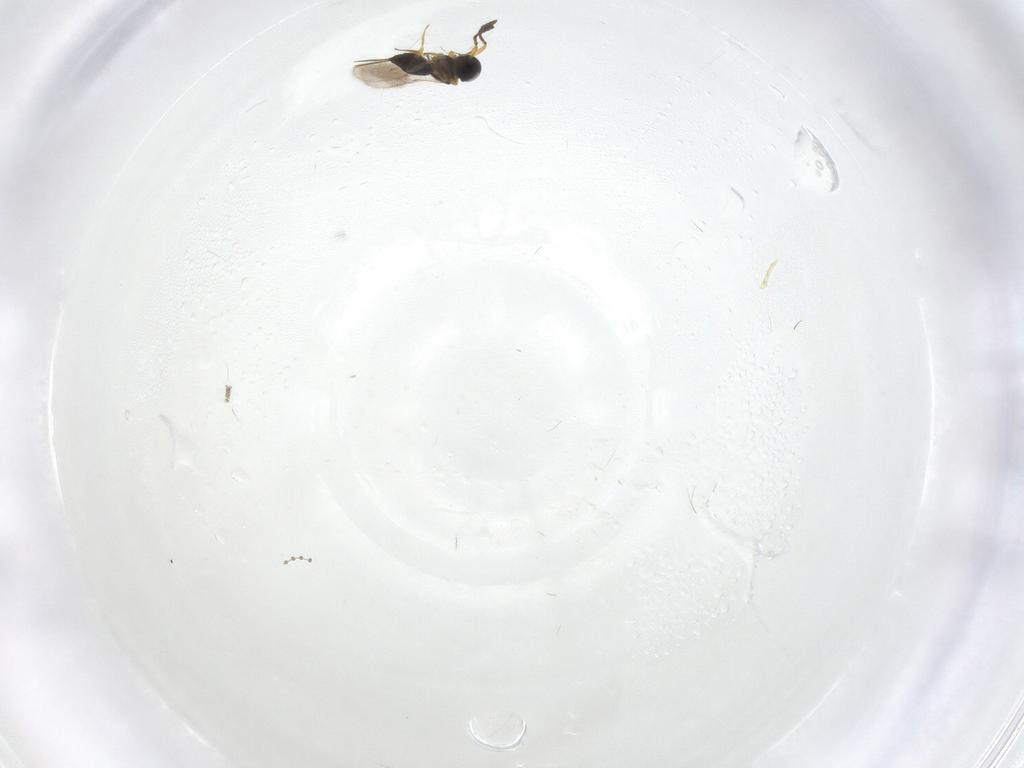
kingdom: Animalia
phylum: Arthropoda
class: Insecta
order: Hymenoptera
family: Scelionidae
